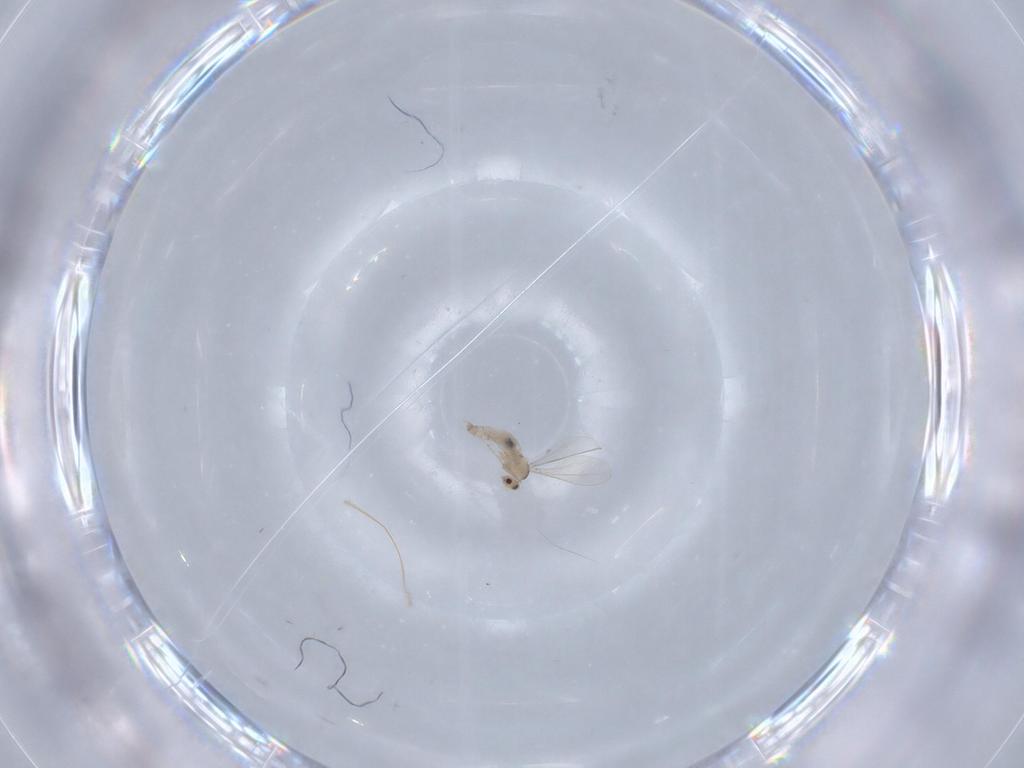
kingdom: Animalia
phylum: Arthropoda
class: Insecta
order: Diptera
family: Cecidomyiidae
